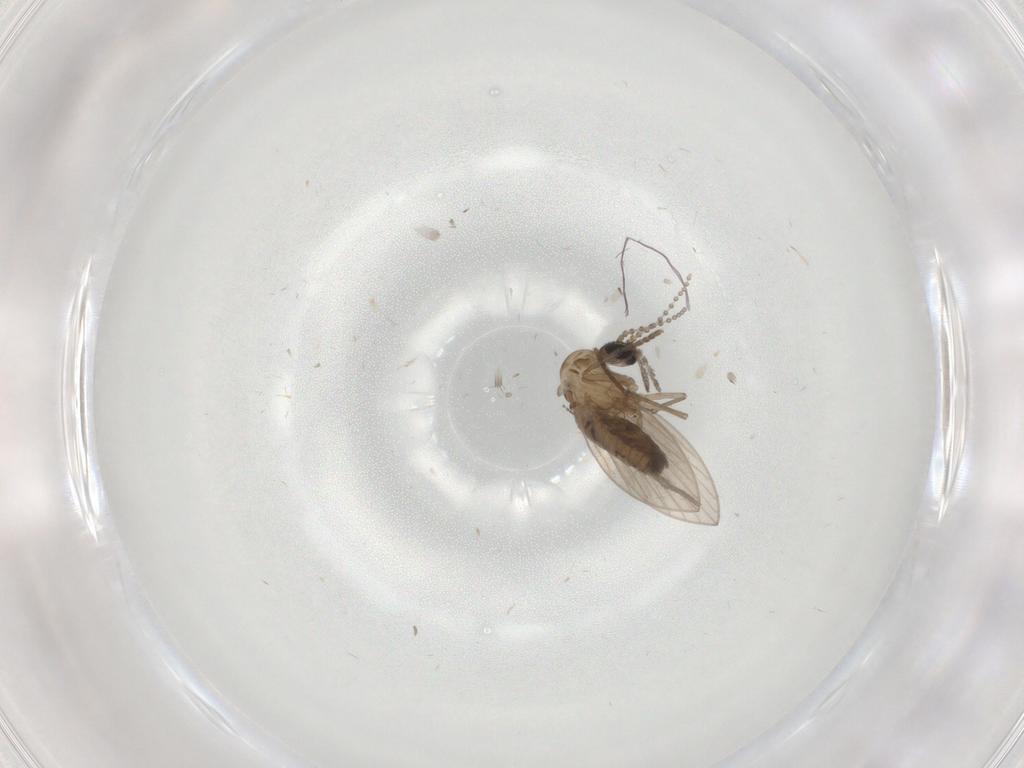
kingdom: Animalia
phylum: Arthropoda
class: Insecta
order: Diptera
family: Psychodidae
